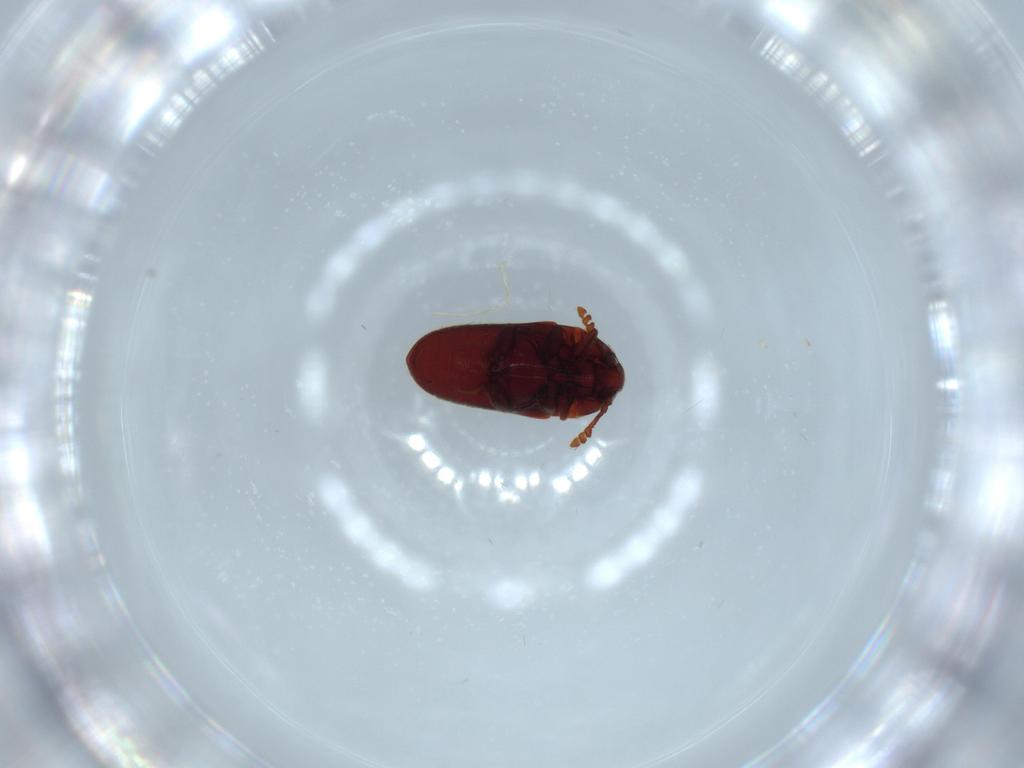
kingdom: Animalia
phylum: Arthropoda
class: Insecta
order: Coleoptera
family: Throscidae
